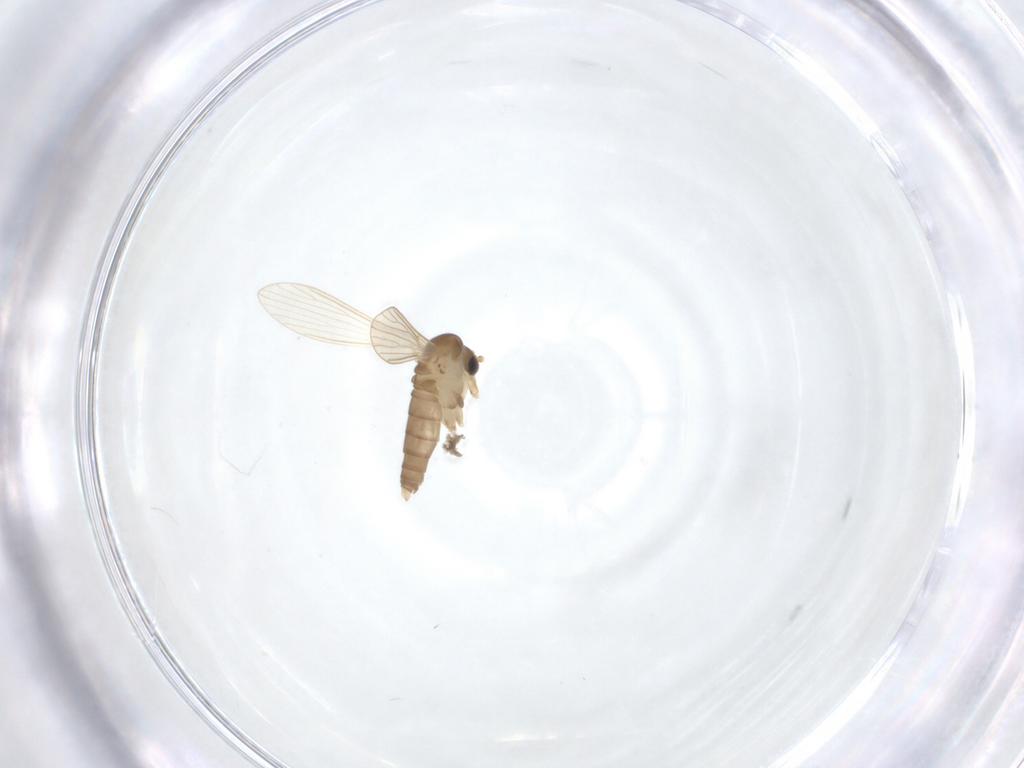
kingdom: Animalia
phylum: Arthropoda
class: Insecta
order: Diptera
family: Psychodidae
